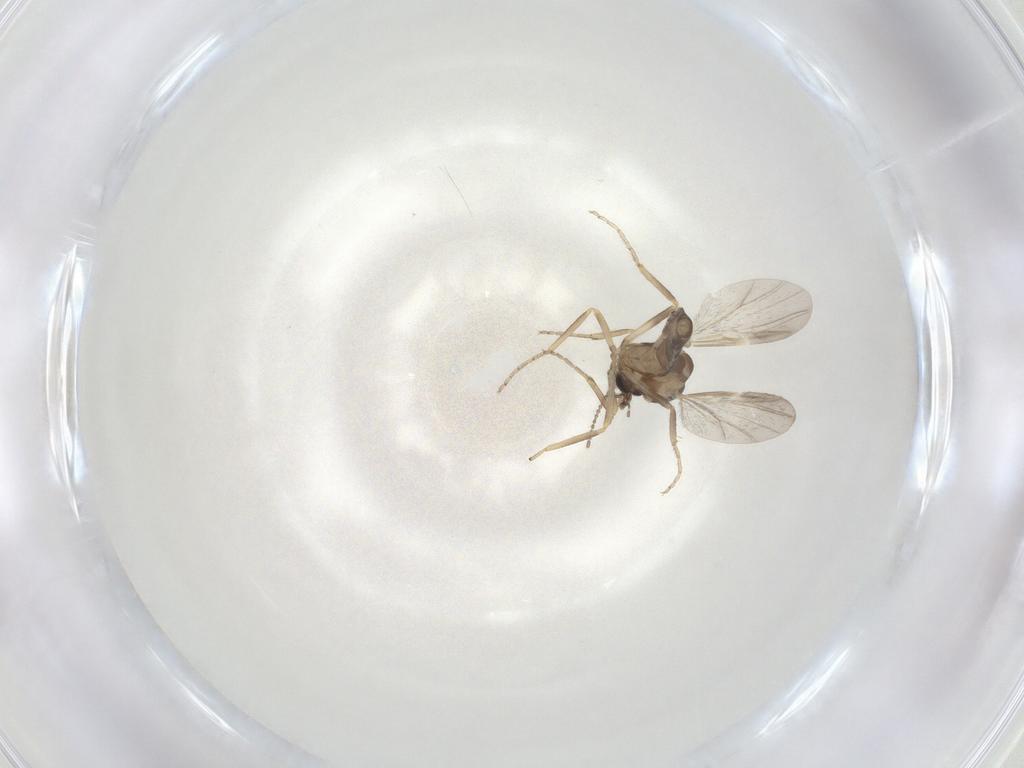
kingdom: Animalia
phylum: Arthropoda
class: Insecta
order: Diptera
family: Ceratopogonidae
